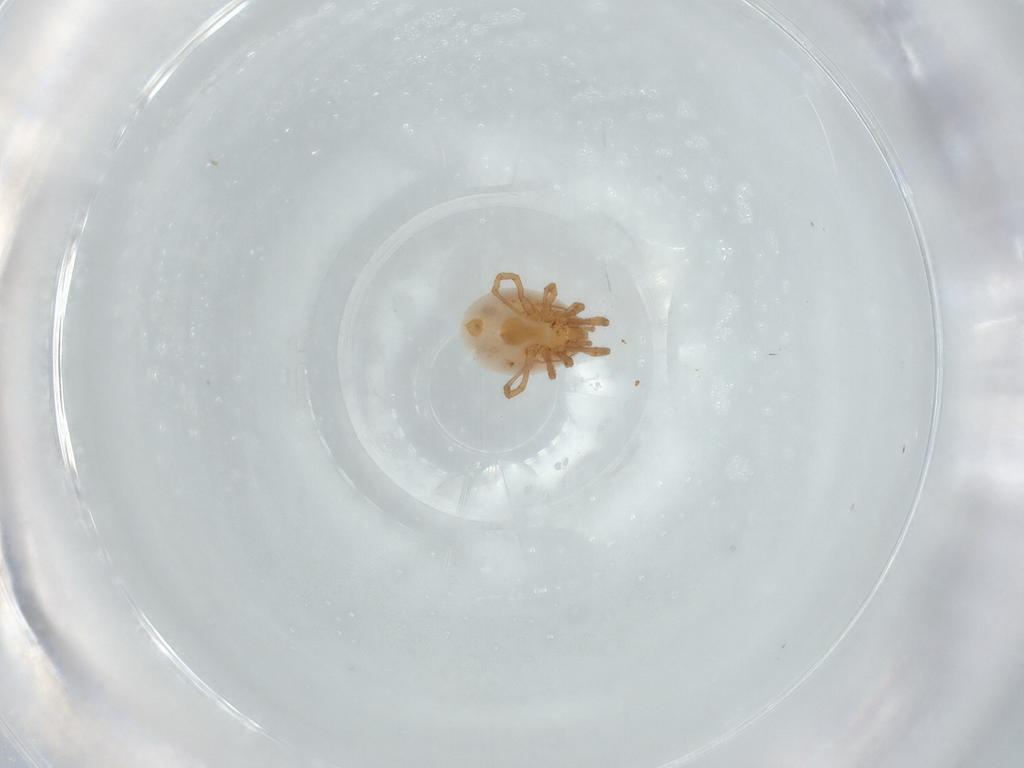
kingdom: Animalia
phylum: Arthropoda
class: Arachnida
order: Mesostigmata
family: Parasitidae
